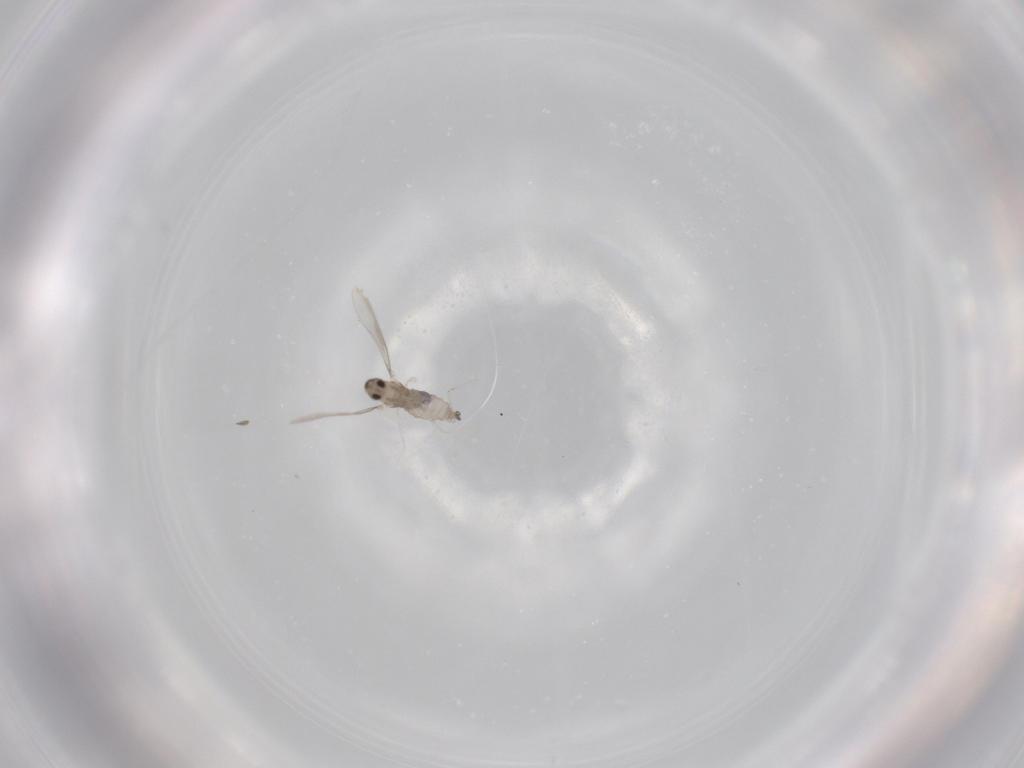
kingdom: Animalia
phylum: Arthropoda
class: Insecta
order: Diptera
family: Cecidomyiidae
